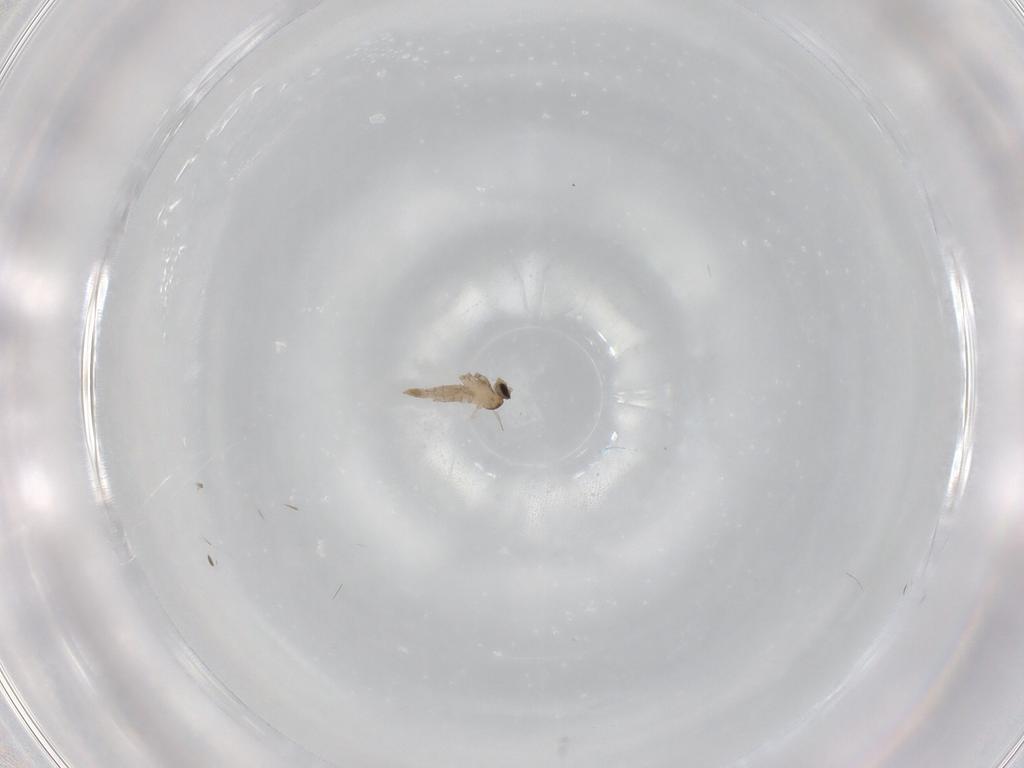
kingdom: Animalia
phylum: Arthropoda
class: Insecta
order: Diptera
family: Cecidomyiidae
